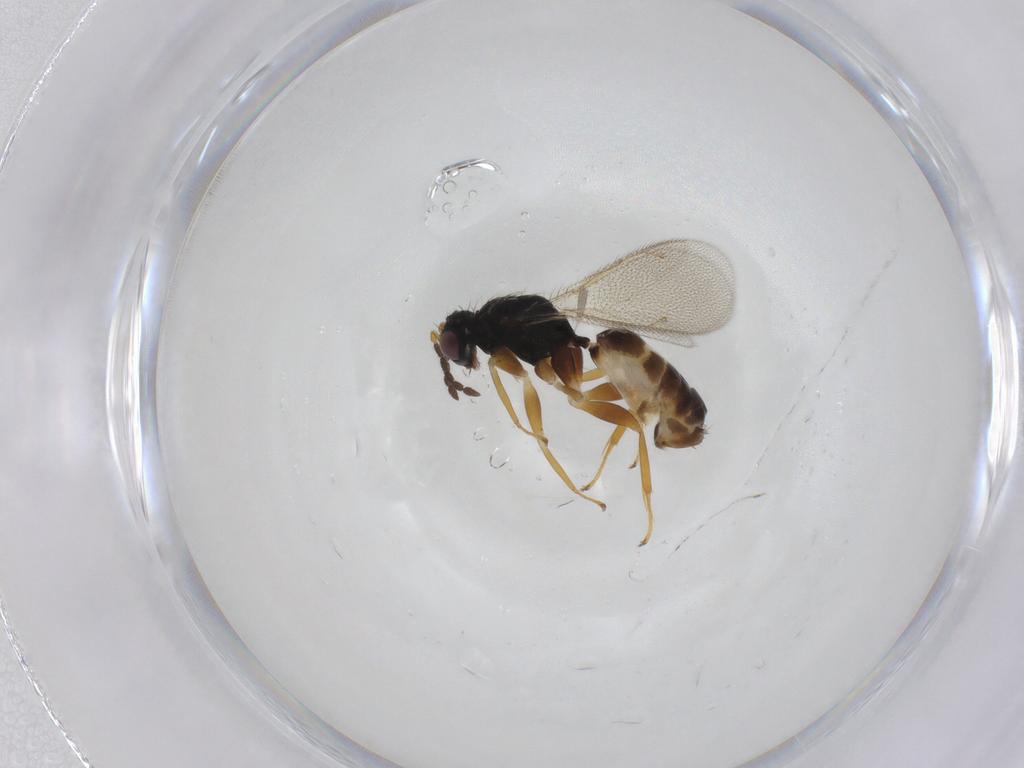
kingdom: Animalia
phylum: Arthropoda
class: Insecta
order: Hymenoptera
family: Eulophidae
